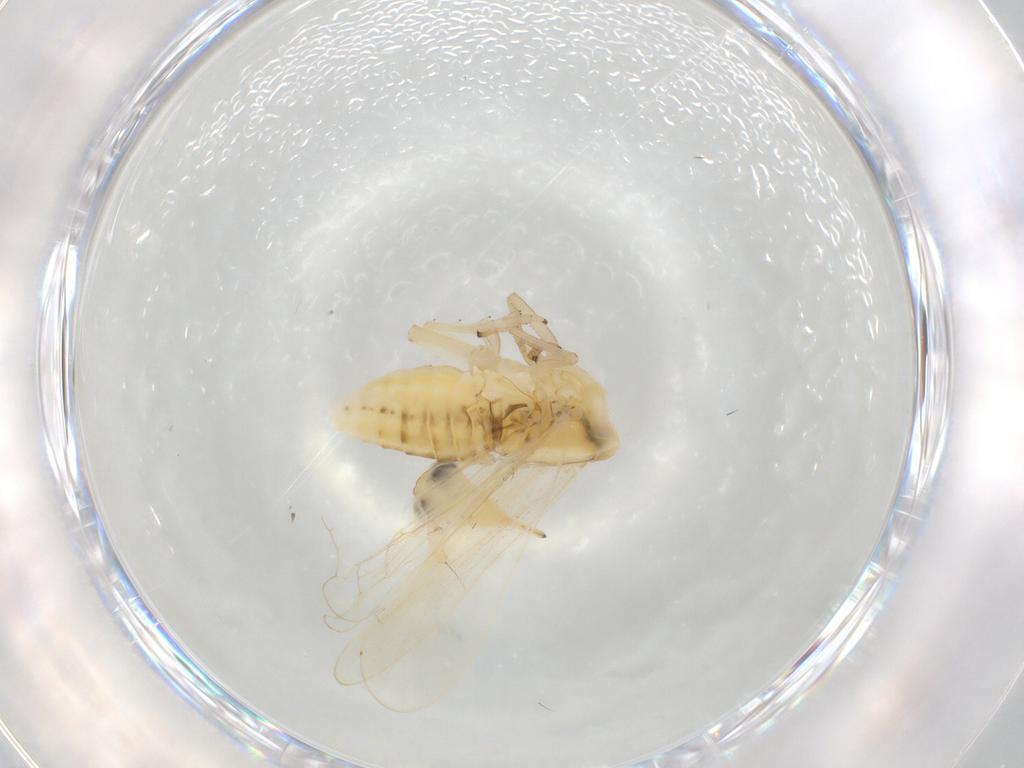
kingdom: Animalia
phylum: Arthropoda
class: Insecta
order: Hemiptera
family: Delphacidae
